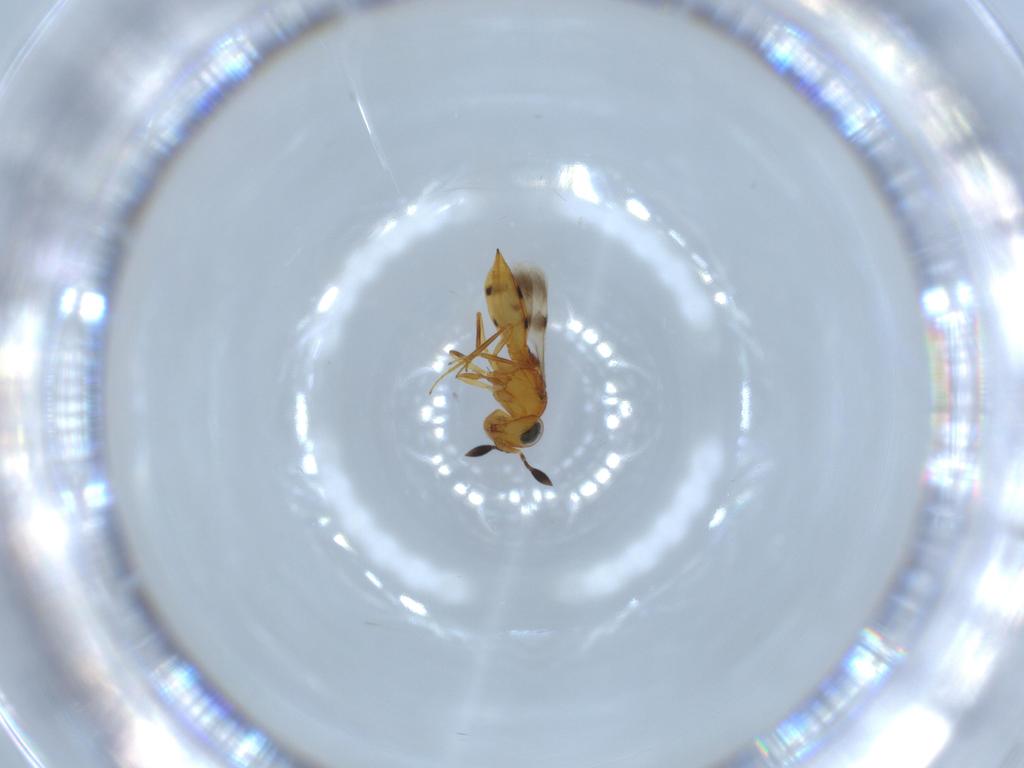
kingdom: Animalia
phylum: Arthropoda
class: Insecta
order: Hymenoptera
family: Scelionidae
